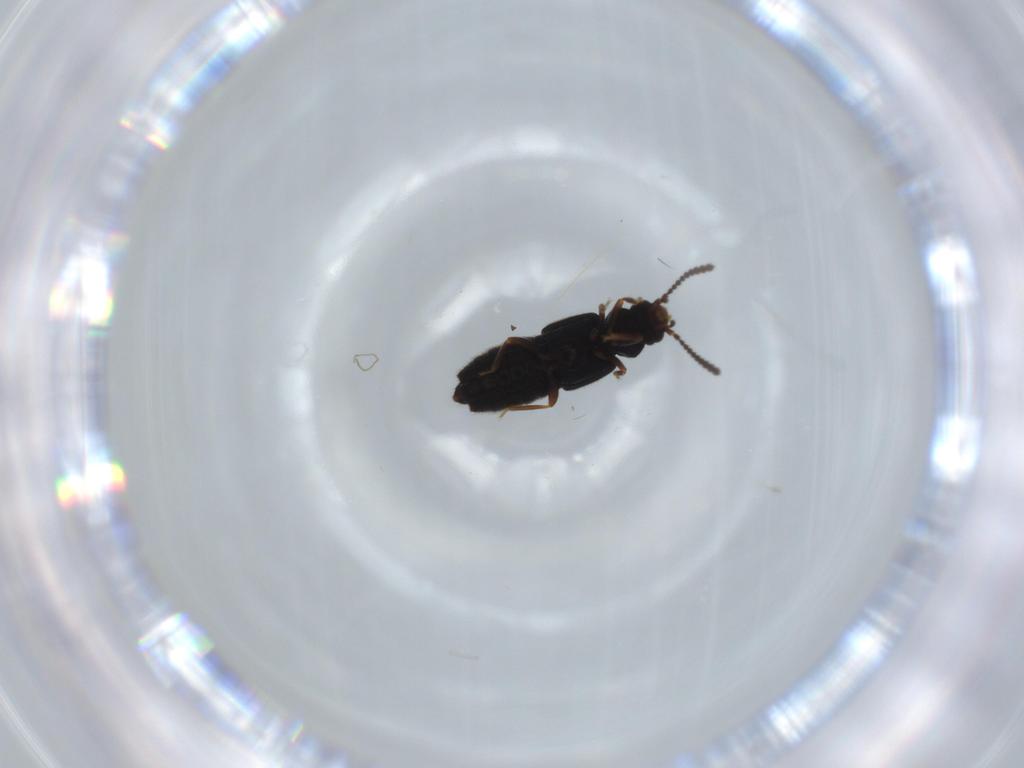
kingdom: Animalia
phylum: Arthropoda
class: Insecta
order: Coleoptera
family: Staphylinidae
